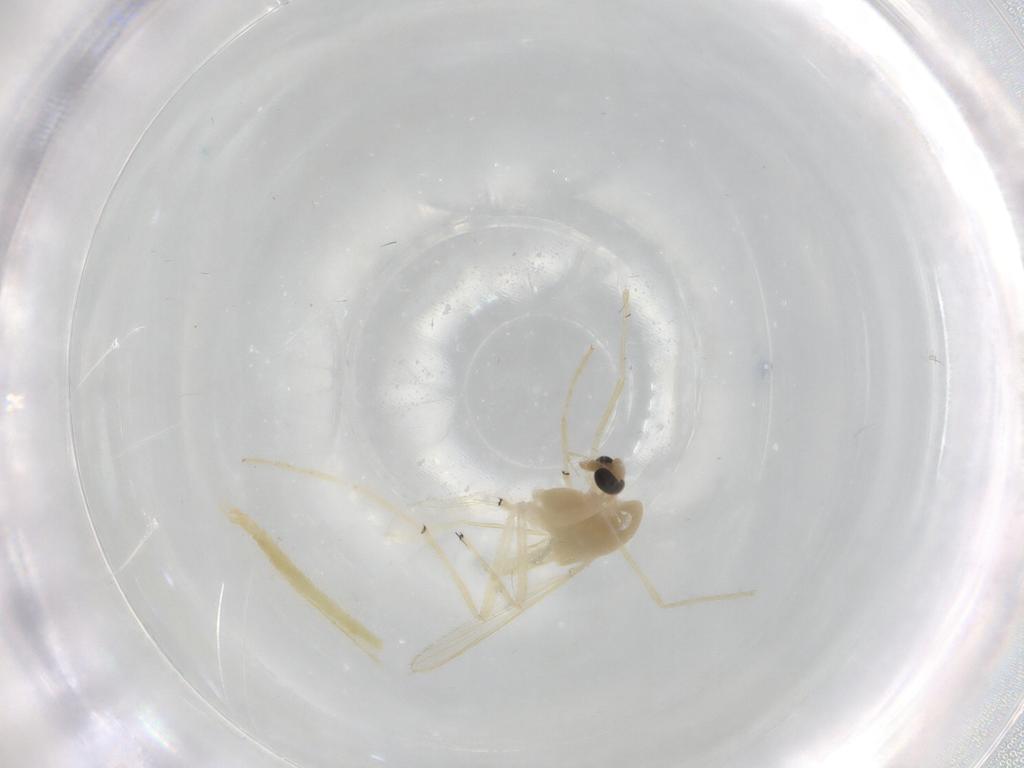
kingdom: Animalia
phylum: Arthropoda
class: Insecta
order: Diptera
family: Chironomidae
